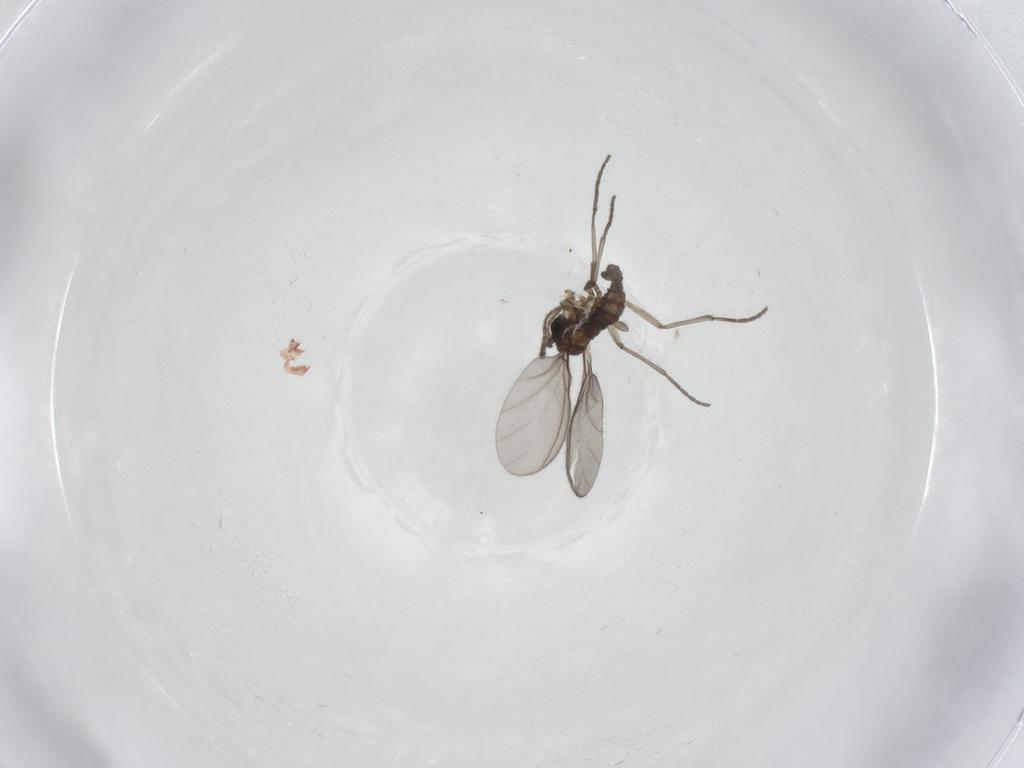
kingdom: Animalia
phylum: Arthropoda
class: Insecta
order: Diptera
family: Sciaridae
